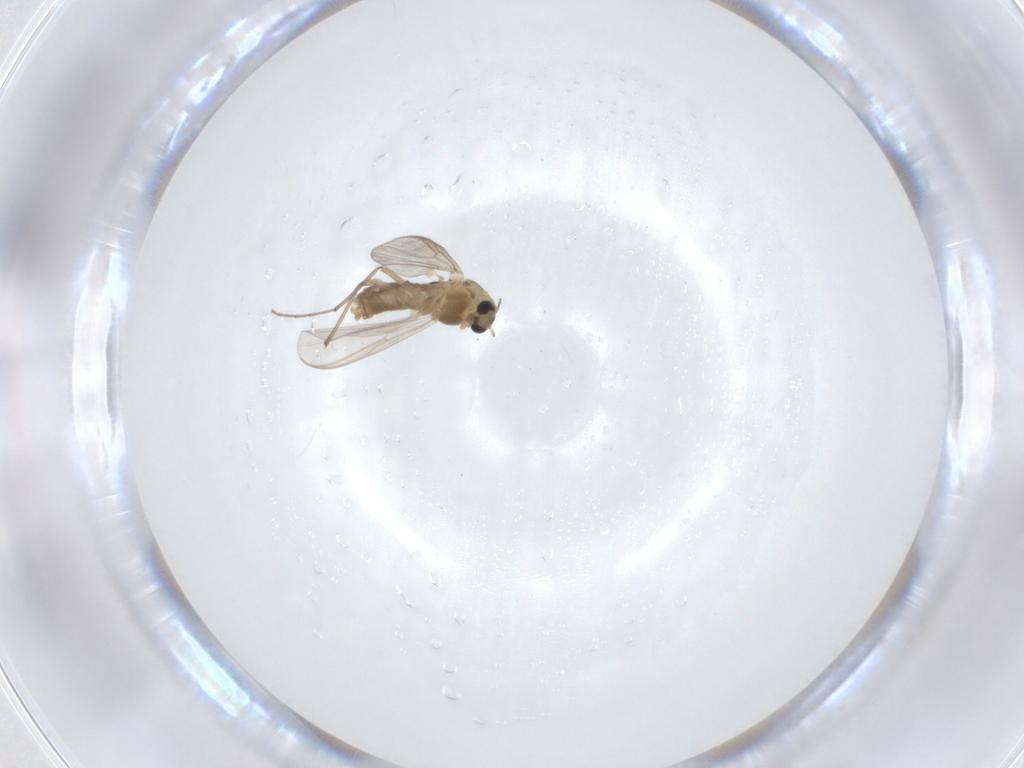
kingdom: Animalia
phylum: Arthropoda
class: Insecta
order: Diptera
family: Chironomidae
